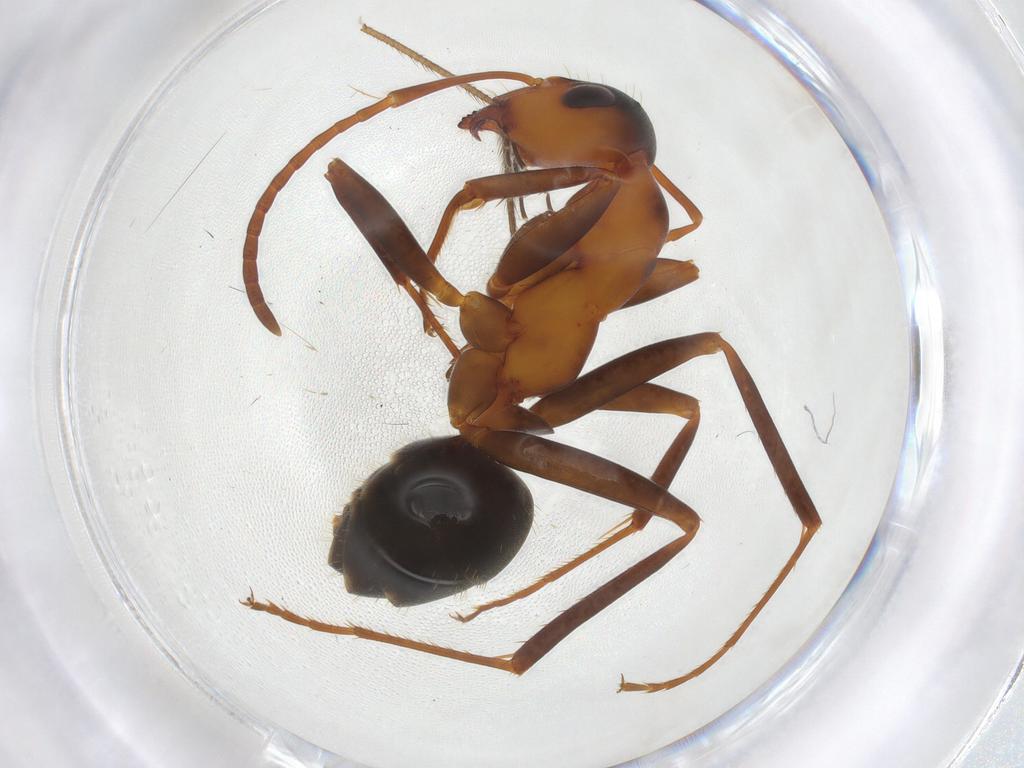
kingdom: Animalia
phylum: Arthropoda
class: Insecta
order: Hymenoptera
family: Formicidae
